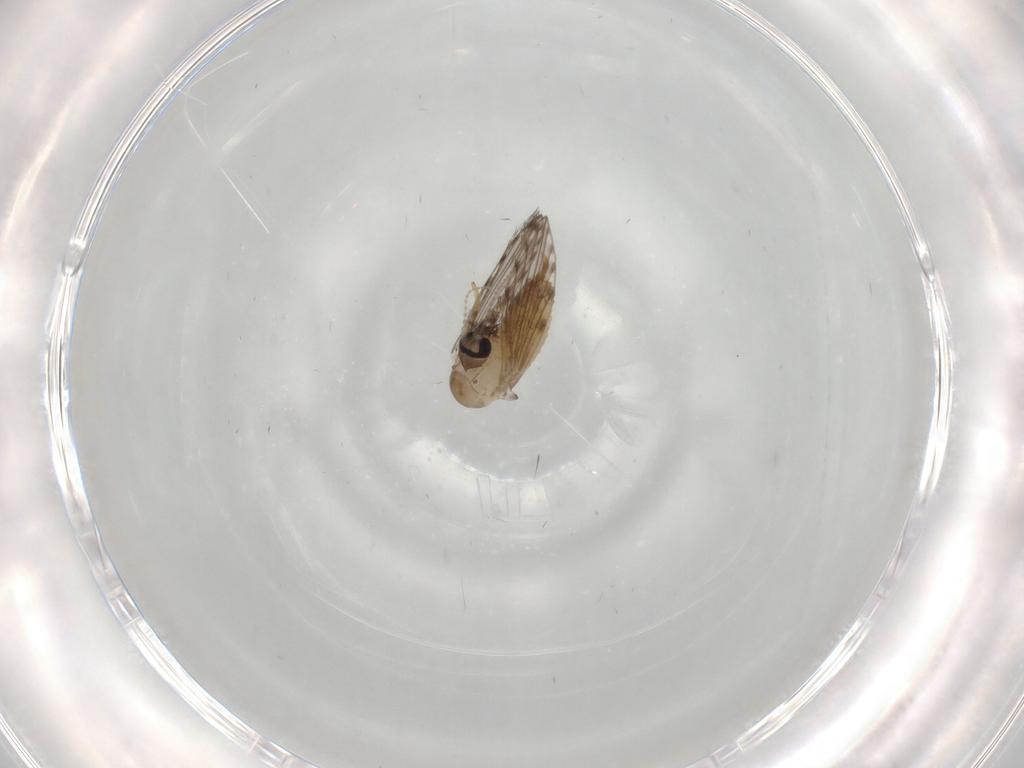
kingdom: Animalia
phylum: Arthropoda
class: Insecta
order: Diptera
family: Psychodidae
